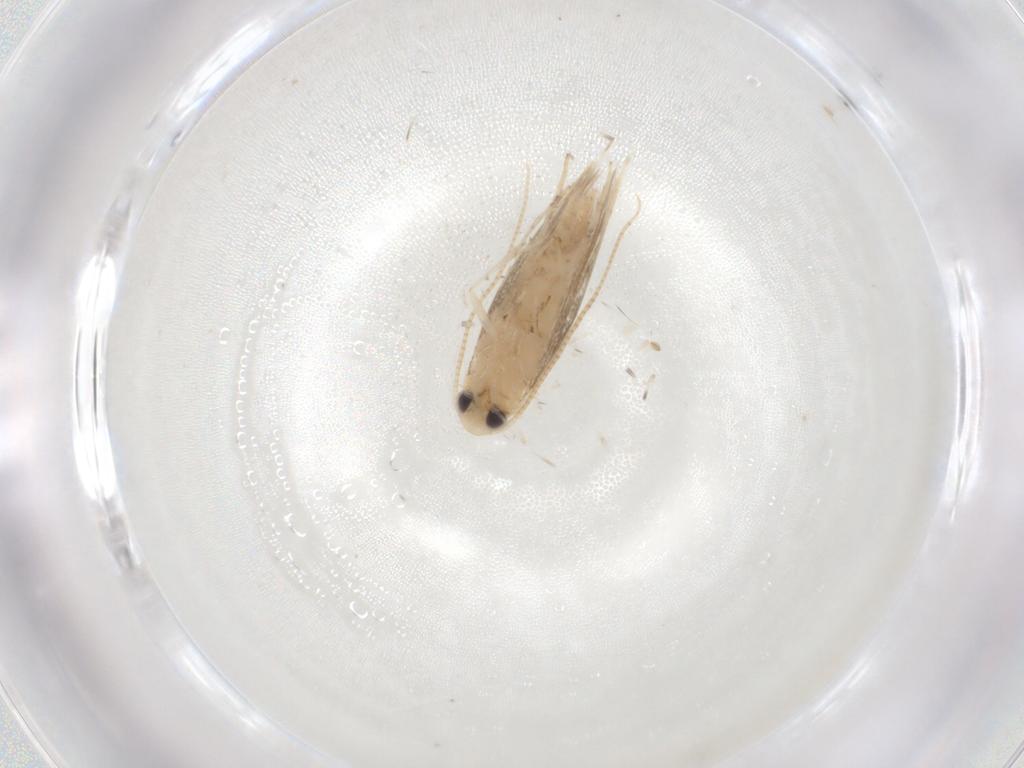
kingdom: Animalia
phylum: Arthropoda
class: Insecta
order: Lepidoptera
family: Gracillariidae
